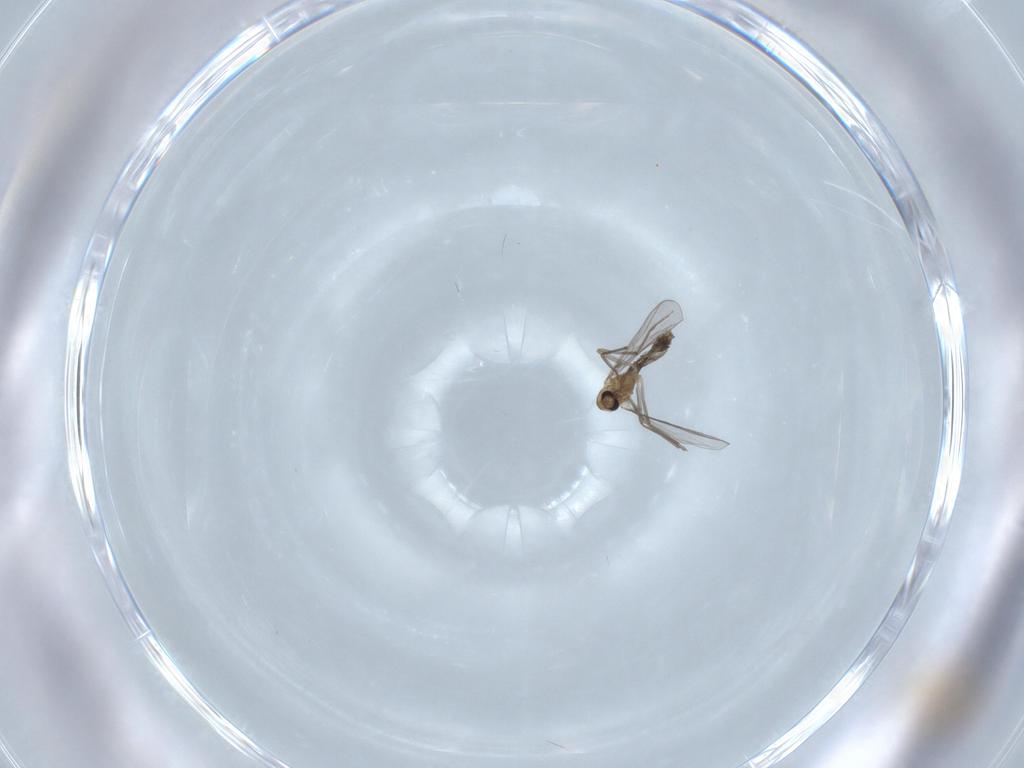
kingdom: Animalia
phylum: Arthropoda
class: Insecta
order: Diptera
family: Chironomidae
